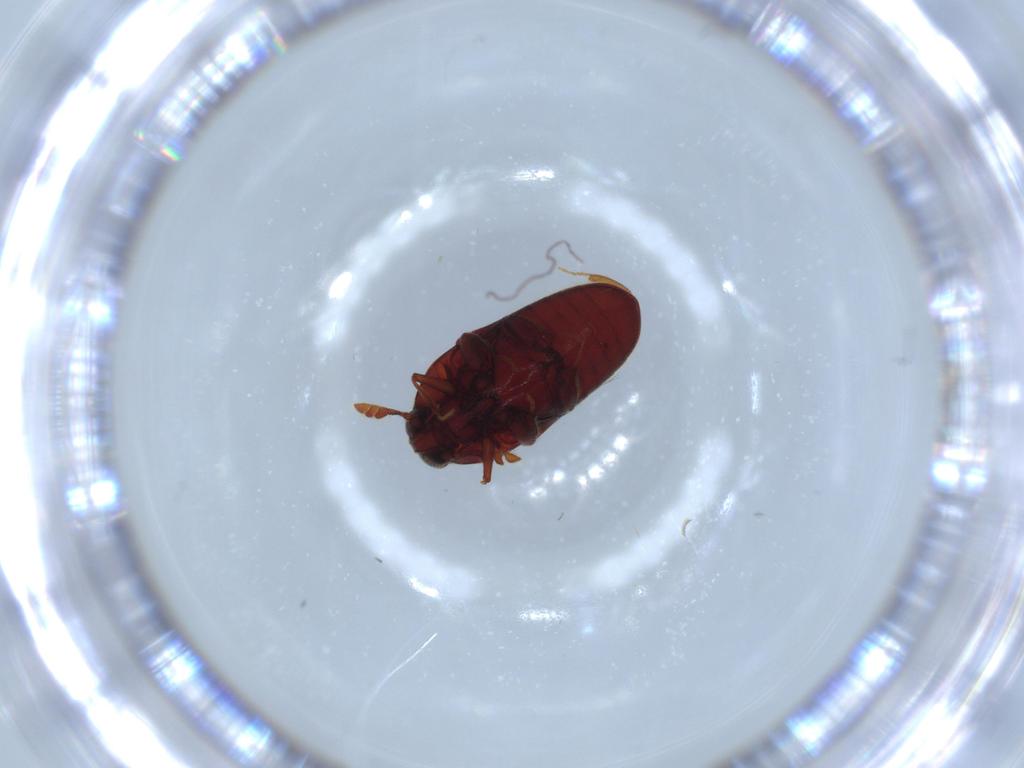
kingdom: Animalia
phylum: Arthropoda
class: Insecta
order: Coleoptera
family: Throscidae
